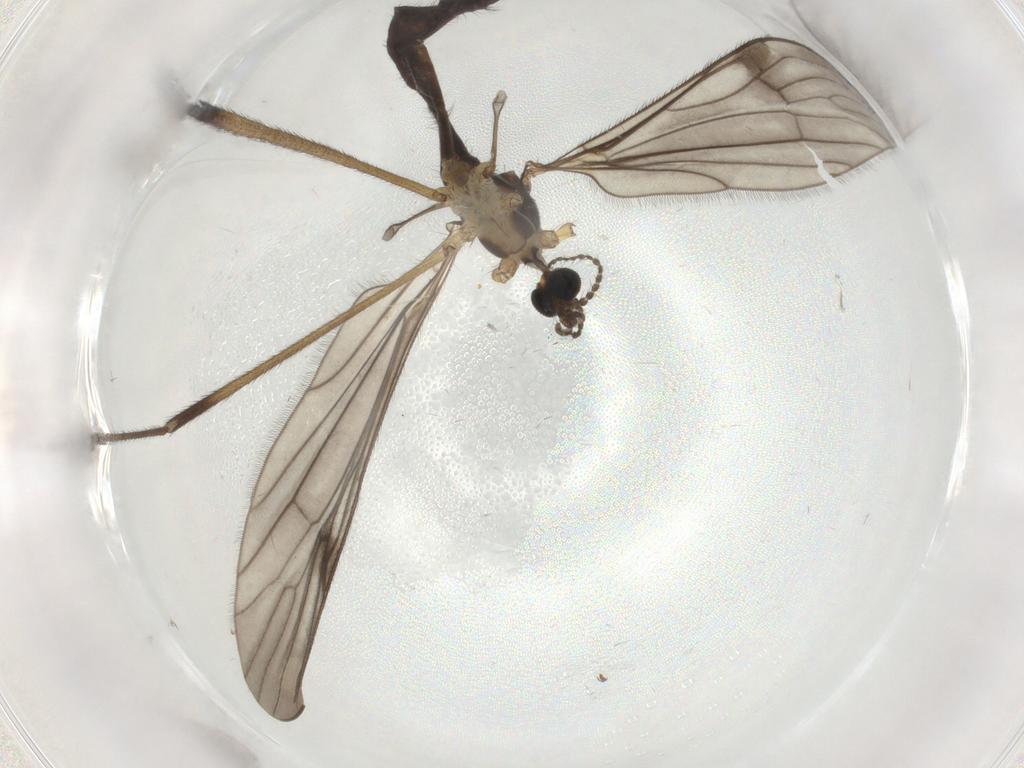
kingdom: Animalia
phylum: Arthropoda
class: Insecta
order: Diptera
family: Limoniidae
